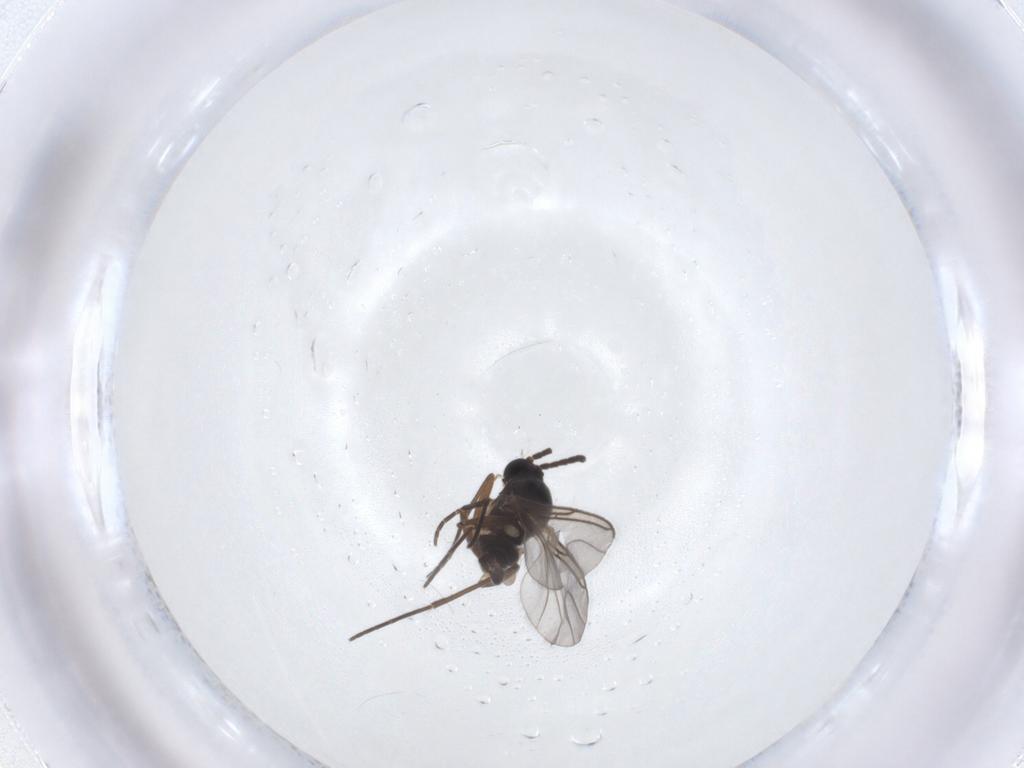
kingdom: Animalia
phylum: Arthropoda
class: Insecta
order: Diptera
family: Sciaridae
